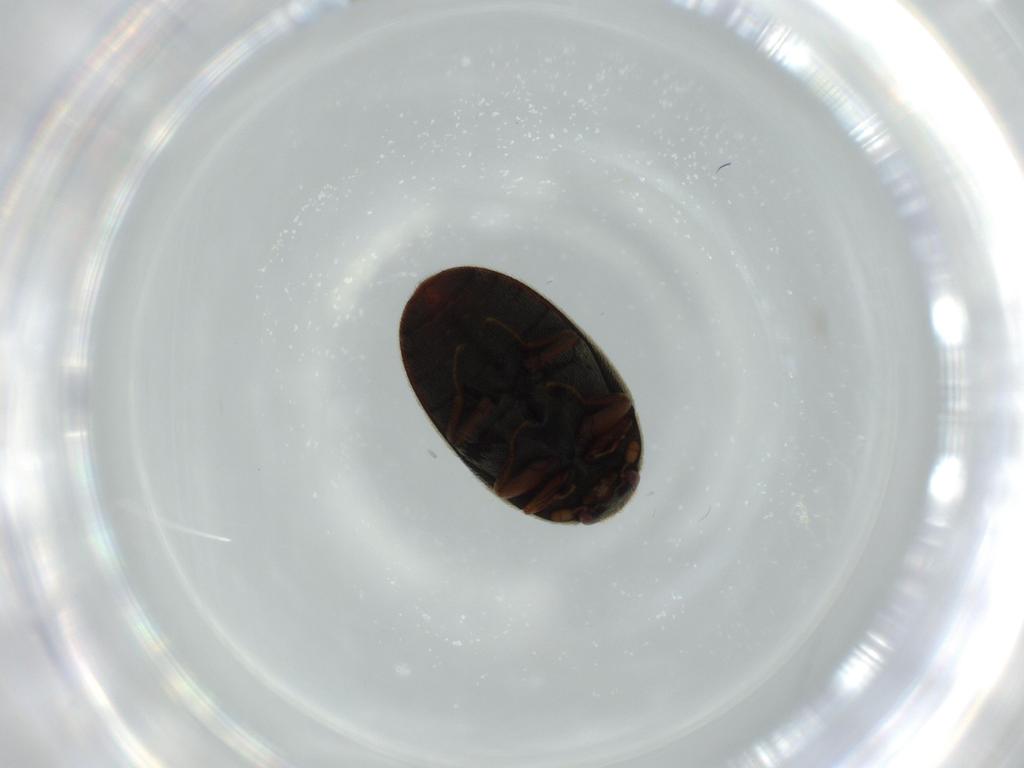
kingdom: Animalia
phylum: Arthropoda
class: Insecta
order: Coleoptera
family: Dermestidae
